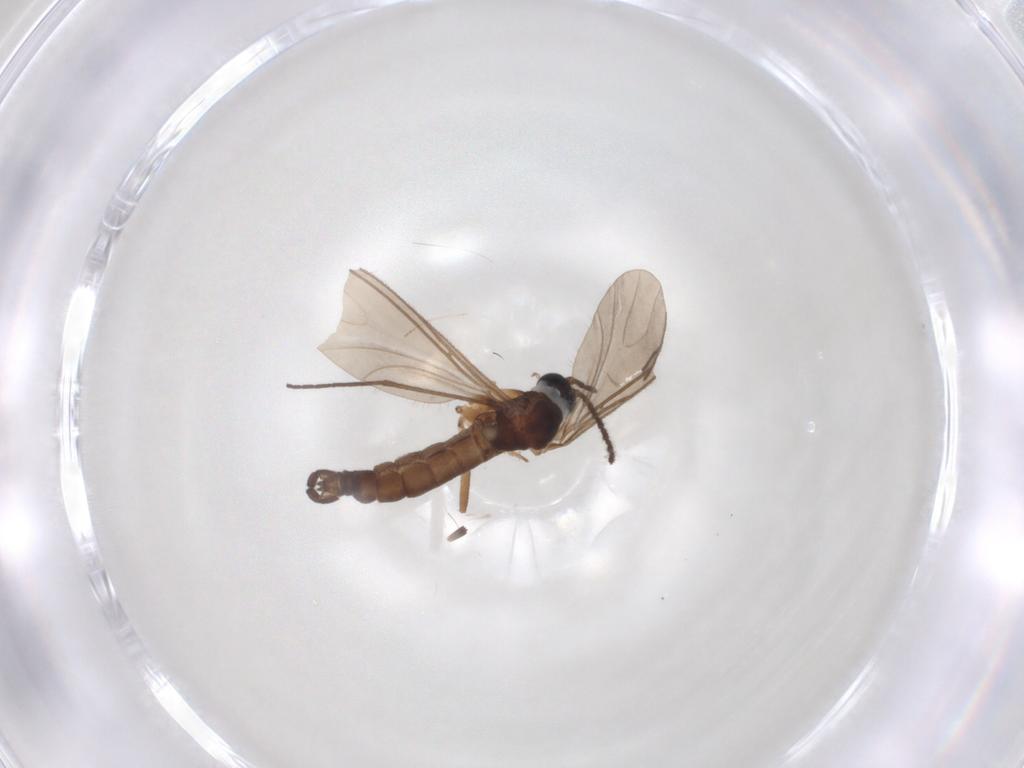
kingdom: Animalia
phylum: Arthropoda
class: Insecta
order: Diptera
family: Sciaridae
